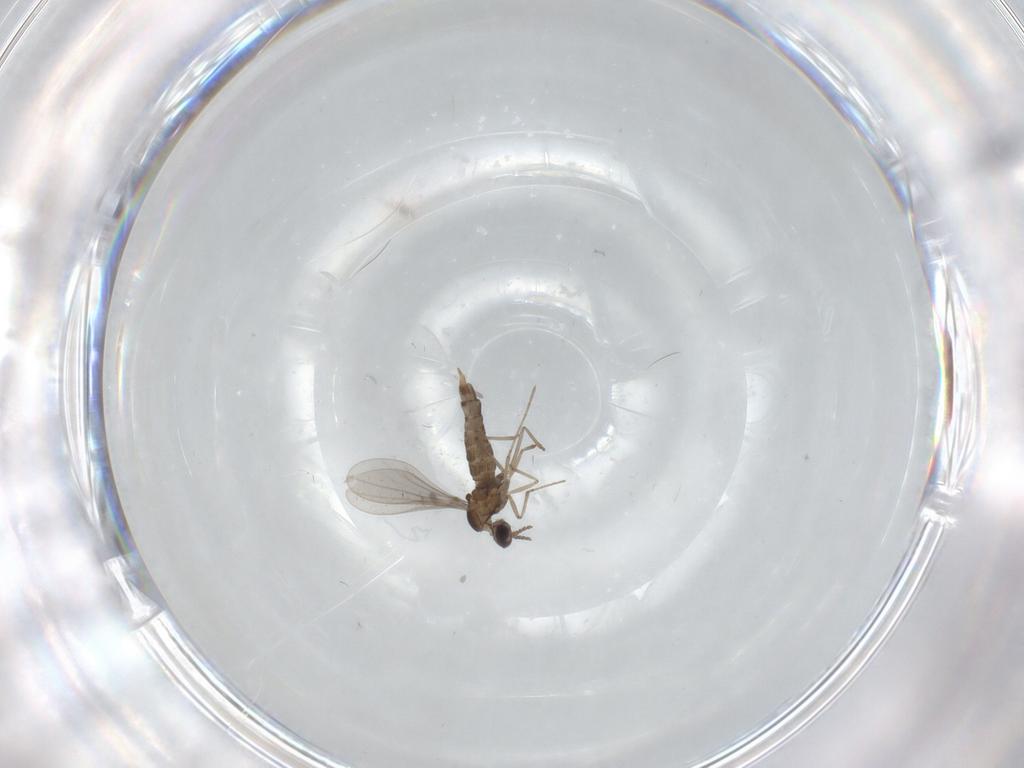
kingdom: Animalia
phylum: Arthropoda
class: Insecta
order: Diptera
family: Cecidomyiidae
